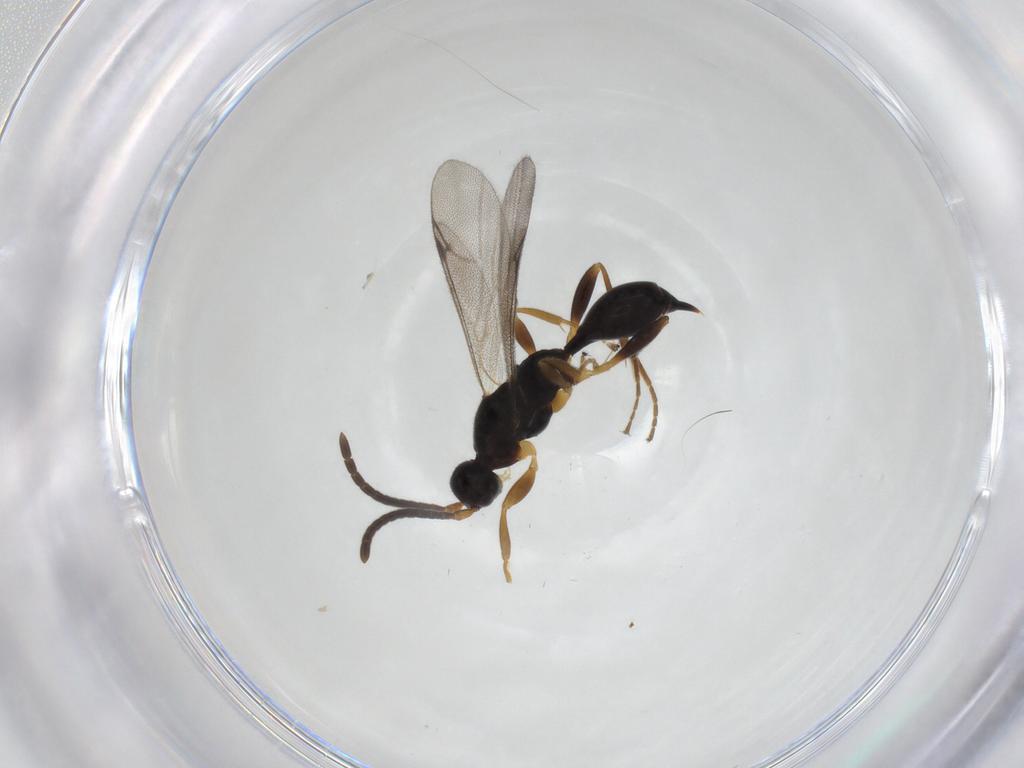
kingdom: Animalia
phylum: Arthropoda
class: Insecta
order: Hymenoptera
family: Proctotrupidae
